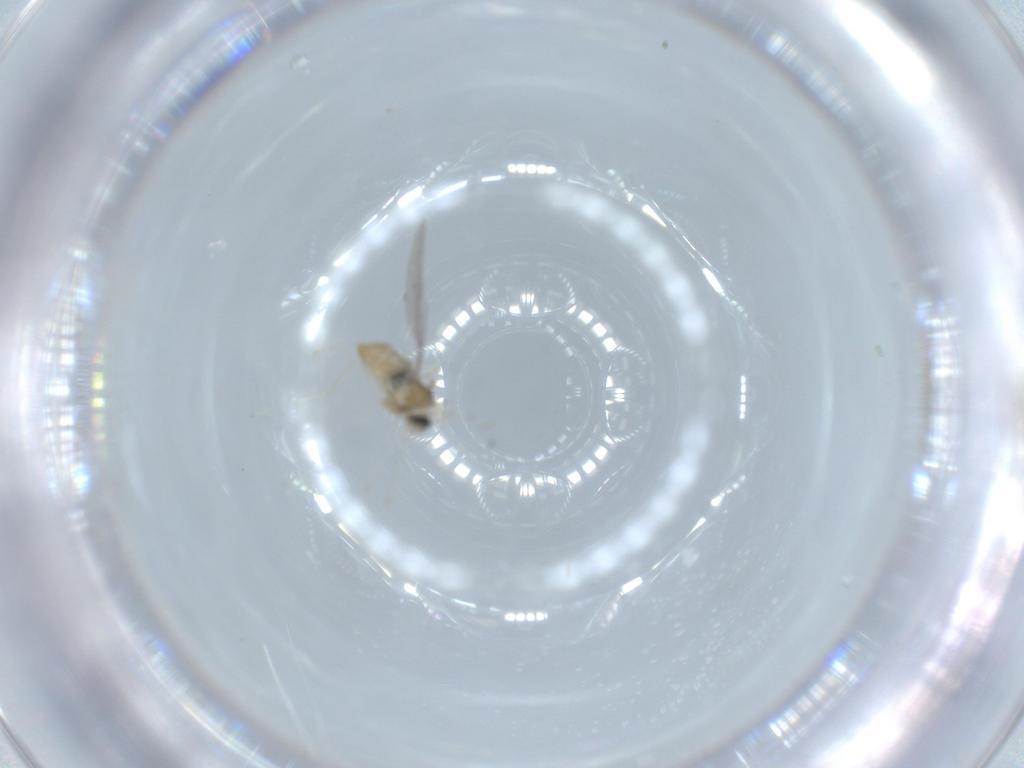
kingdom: Animalia
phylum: Arthropoda
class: Insecta
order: Diptera
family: Cecidomyiidae
